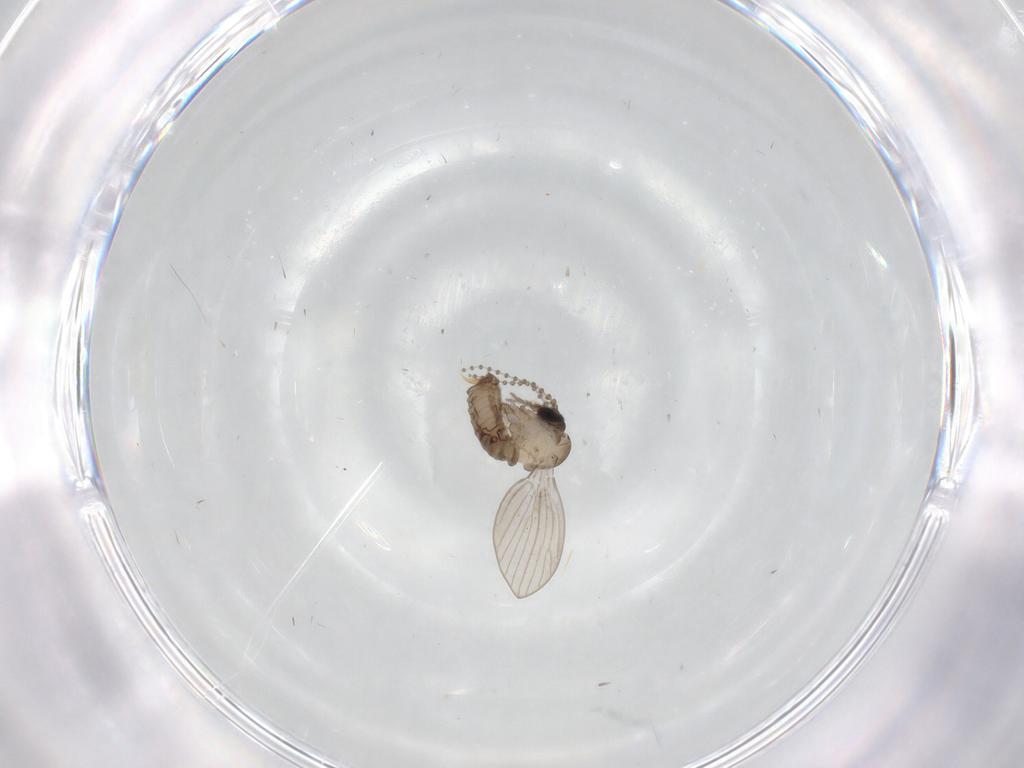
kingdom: Animalia
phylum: Arthropoda
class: Insecta
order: Diptera
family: Psychodidae
